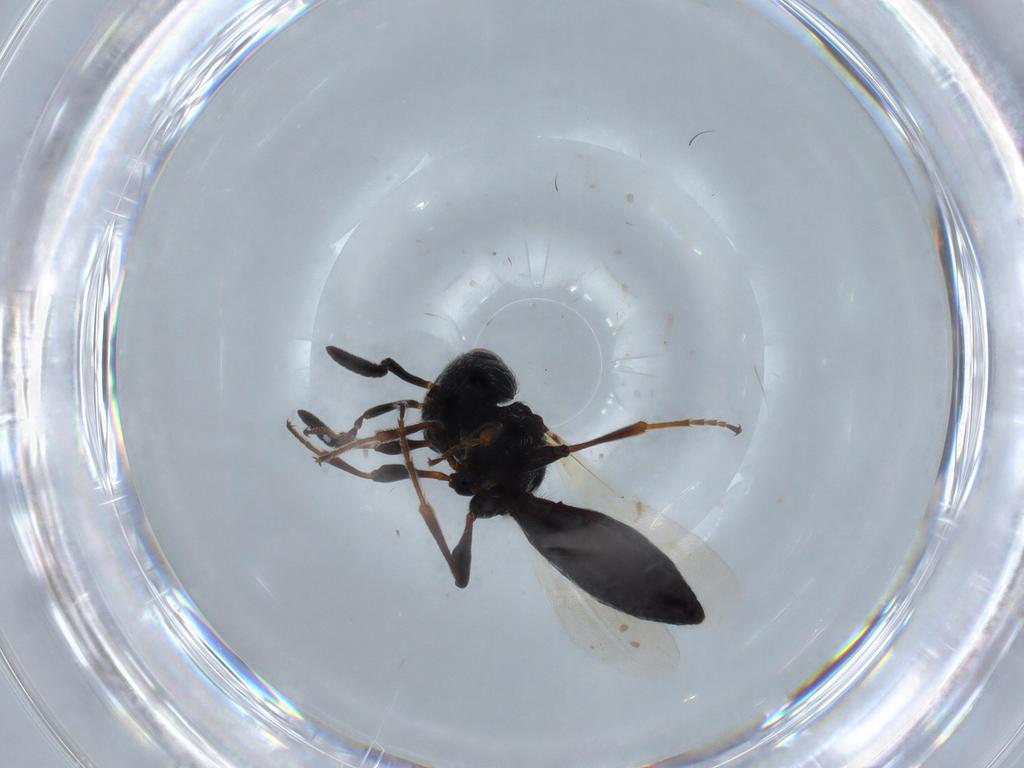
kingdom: Animalia
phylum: Arthropoda
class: Insecta
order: Hymenoptera
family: Scelionidae
